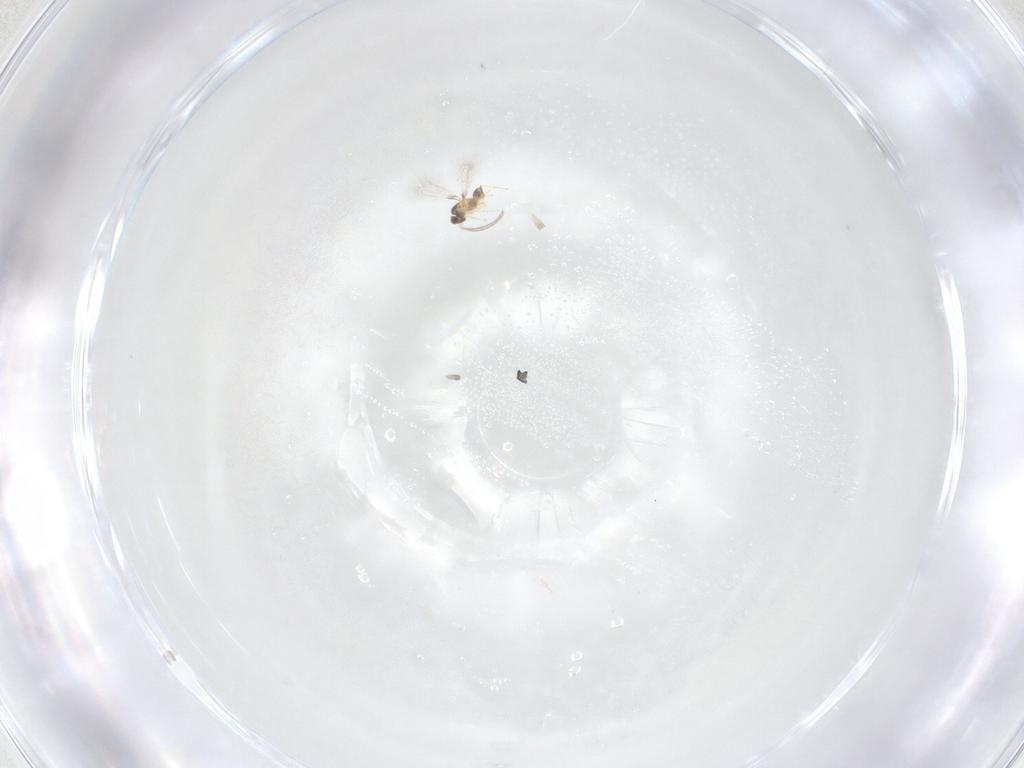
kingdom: Animalia
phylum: Arthropoda
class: Insecta
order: Hymenoptera
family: Mymaridae
